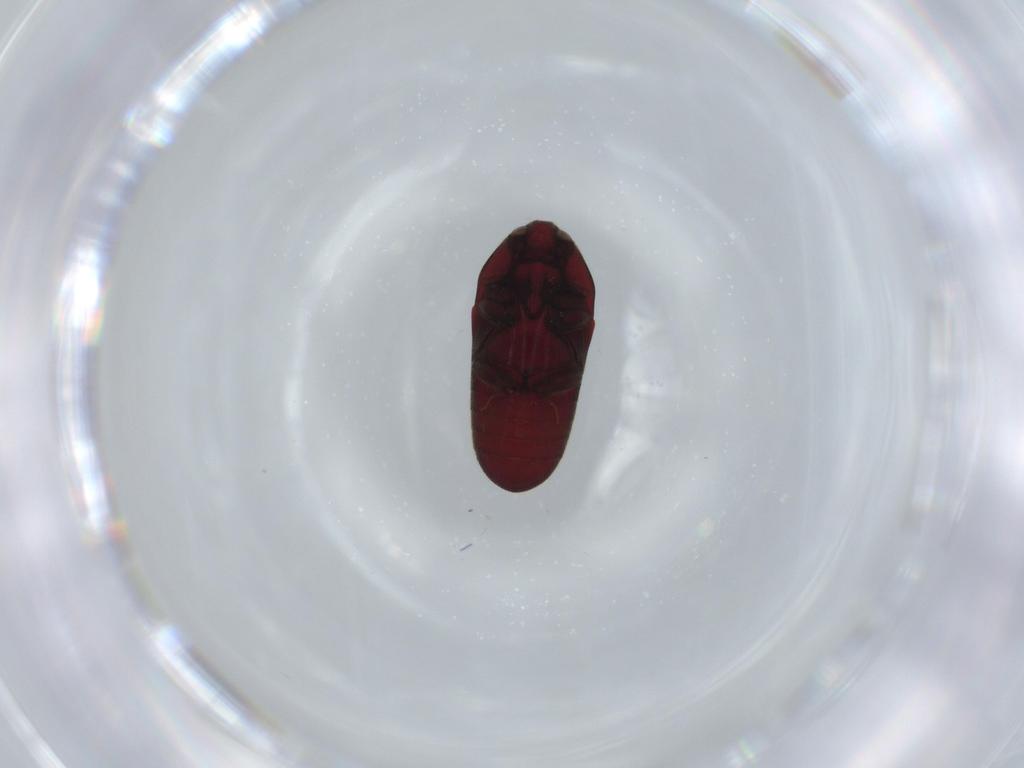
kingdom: Animalia
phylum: Arthropoda
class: Insecta
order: Coleoptera
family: Throscidae
